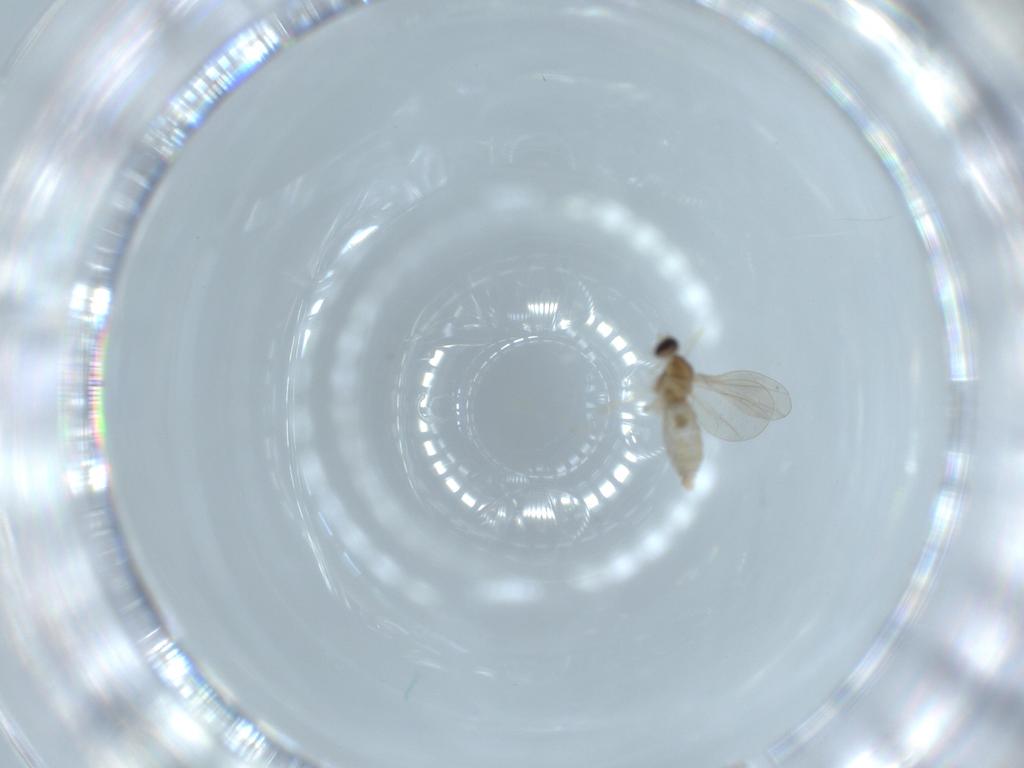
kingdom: Animalia
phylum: Arthropoda
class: Insecta
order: Diptera
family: Cecidomyiidae
